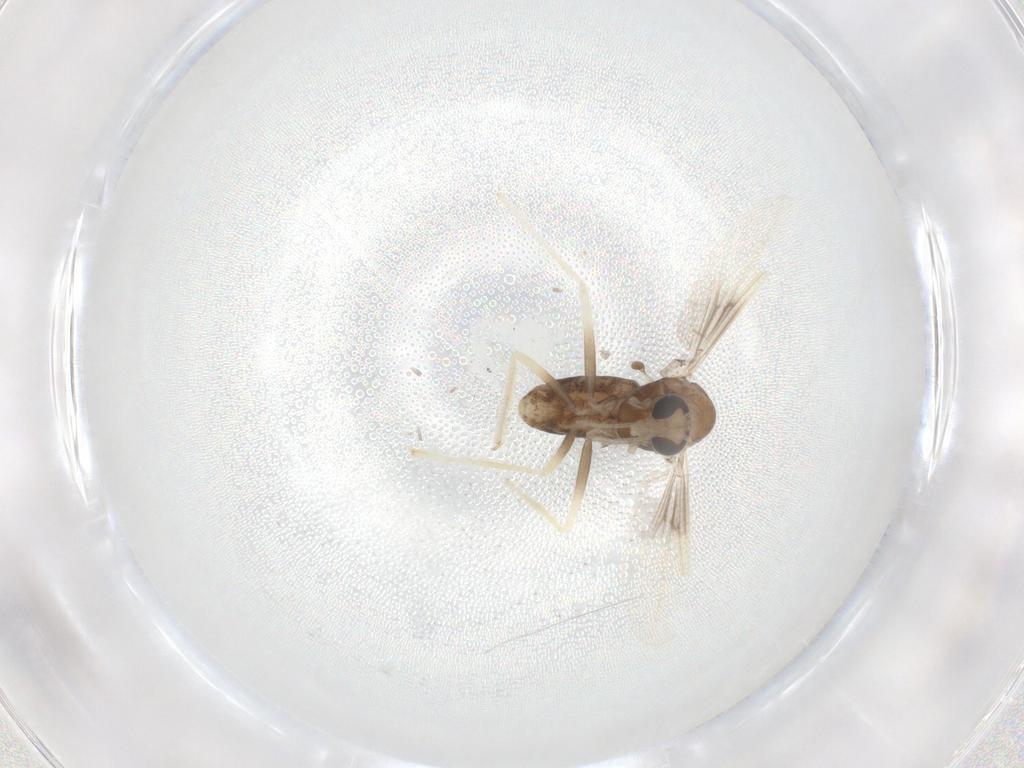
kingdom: Animalia
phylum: Arthropoda
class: Insecta
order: Diptera
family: Chironomidae
